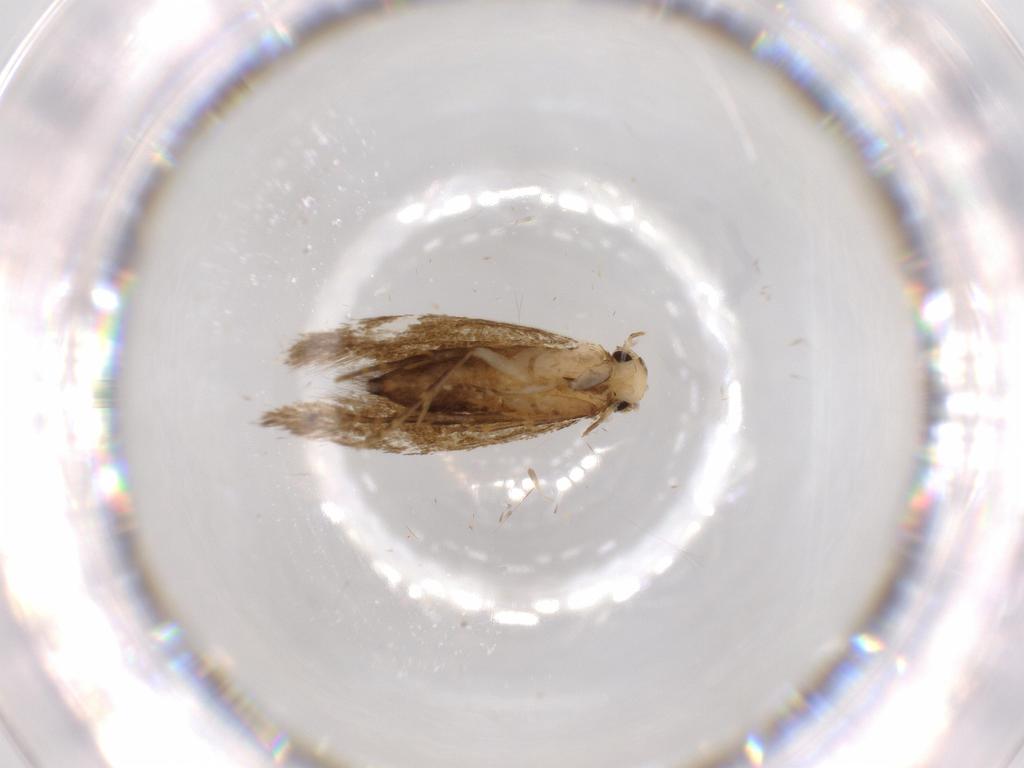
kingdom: Animalia
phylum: Arthropoda
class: Insecta
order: Lepidoptera
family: Tineidae
